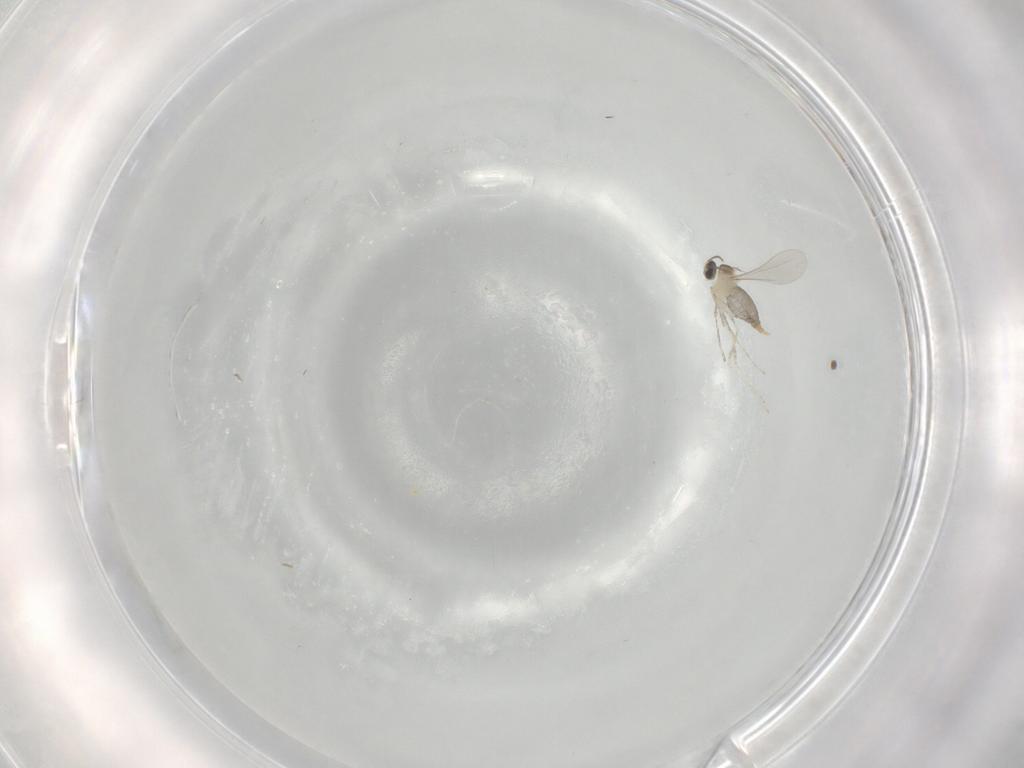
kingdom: Animalia
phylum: Arthropoda
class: Insecta
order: Diptera
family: Cecidomyiidae
